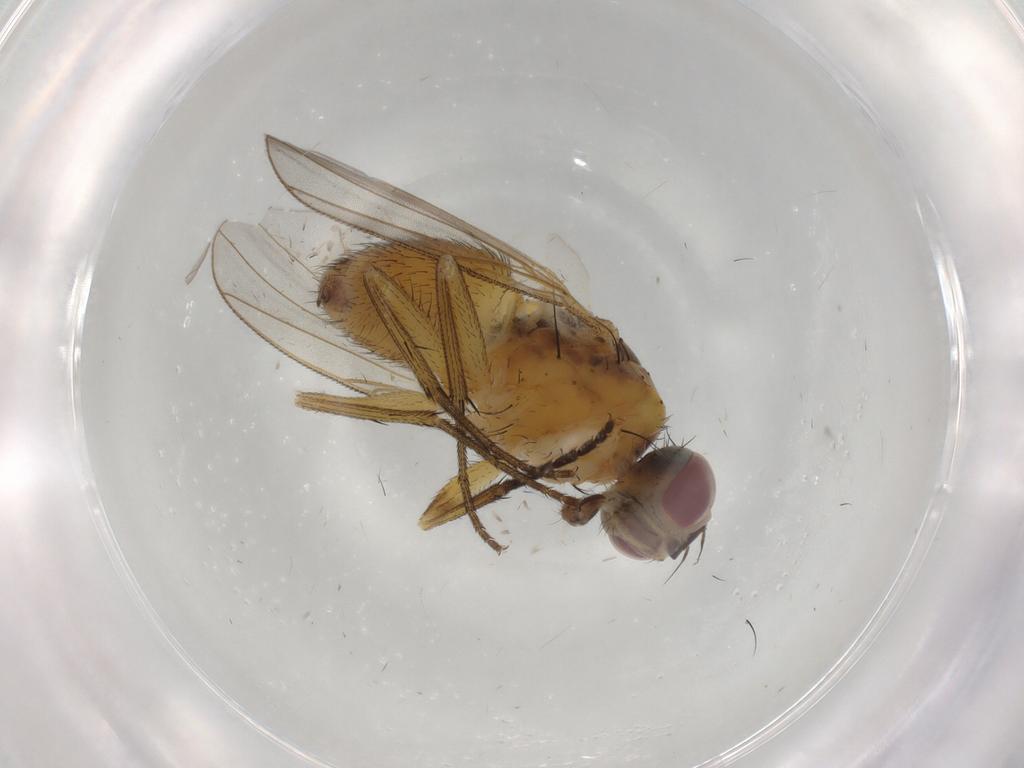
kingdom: Animalia
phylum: Arthropoda
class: Insecta
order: Diptera
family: Muscidae
